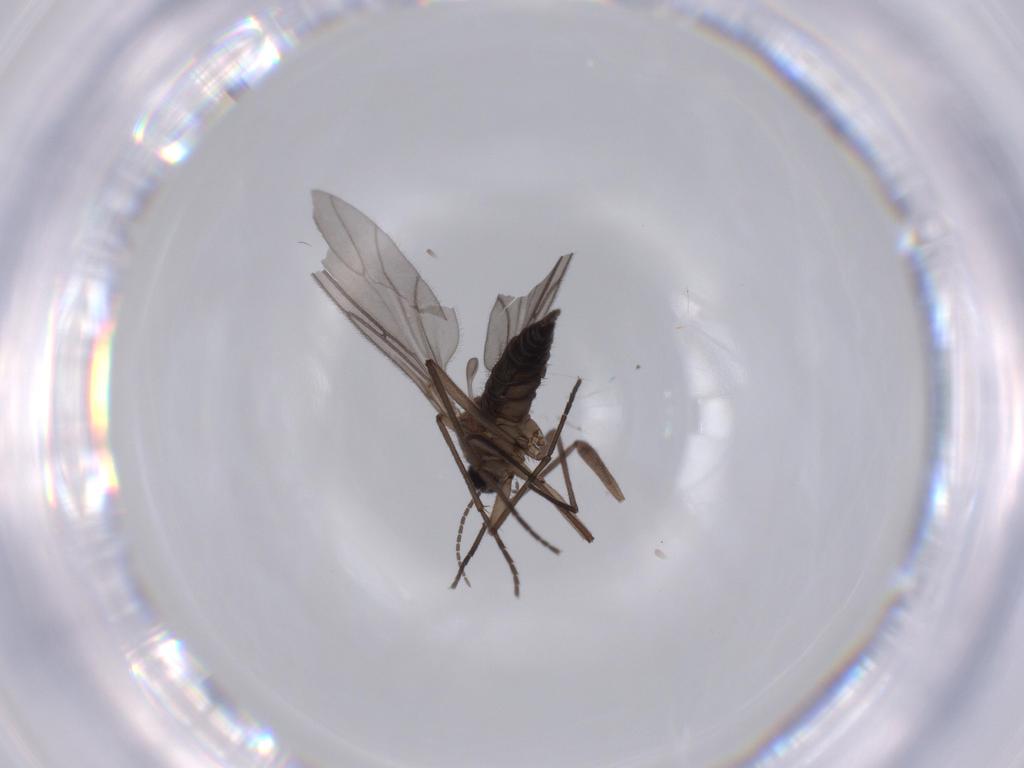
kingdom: Animalia
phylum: Arthropoda
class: Insecta
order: Diptera
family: Sciaridae
